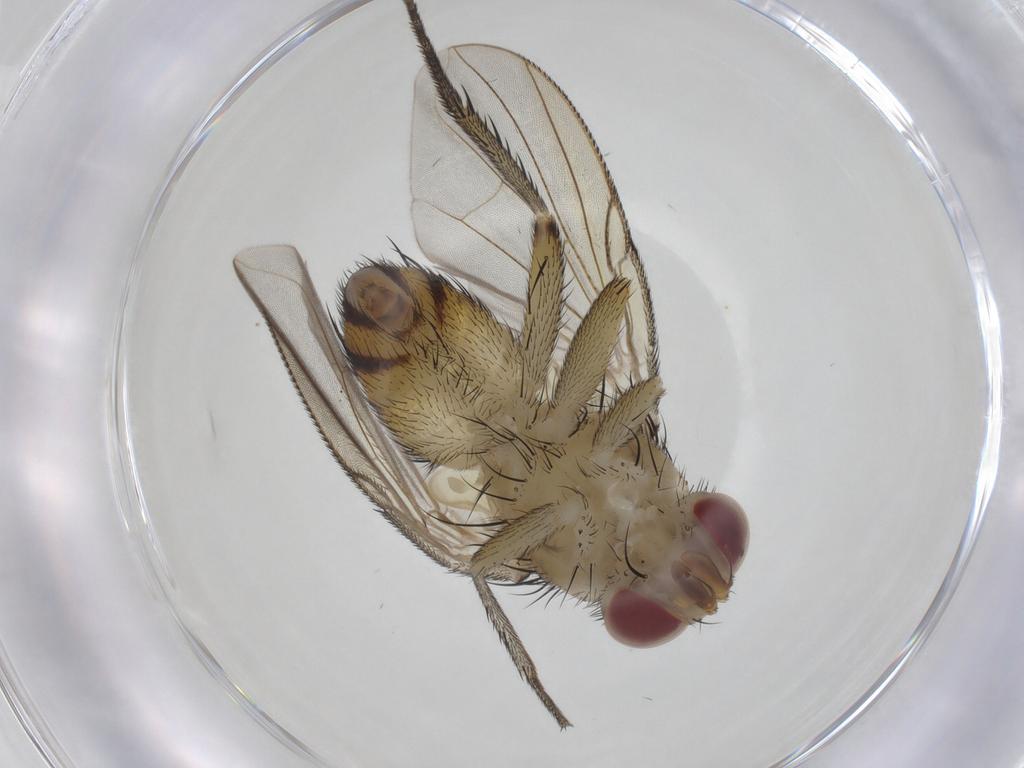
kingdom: Animalia
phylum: Arthropoda
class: Insecta
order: Diptera
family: Tachinidae
